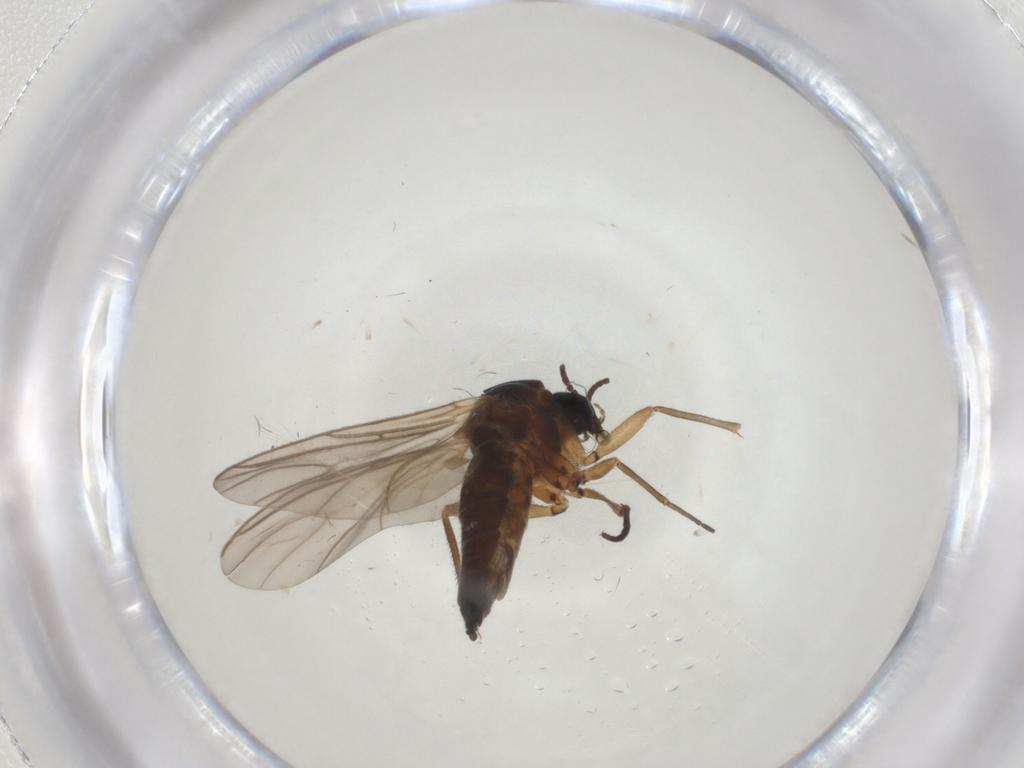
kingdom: Animalia
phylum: Arthropoda
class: Insecta
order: Diptera
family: Sciaridae
